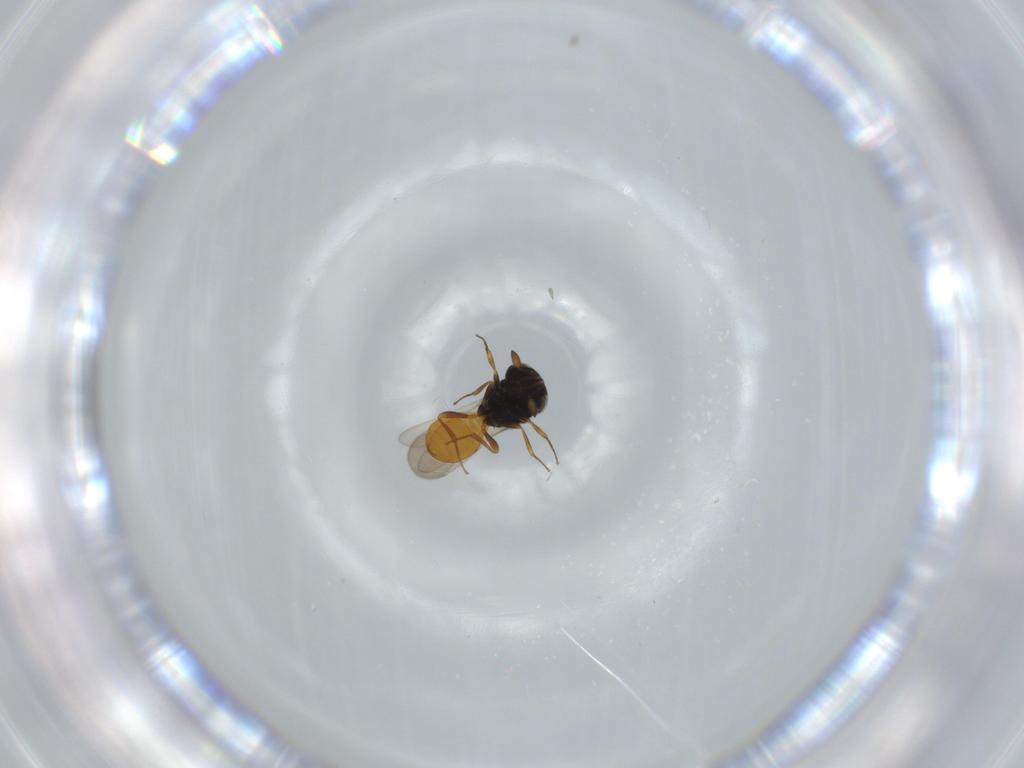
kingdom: Animalia
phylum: Arthropoda
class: Insecta
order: Hymenoptera
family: Scelionidae
